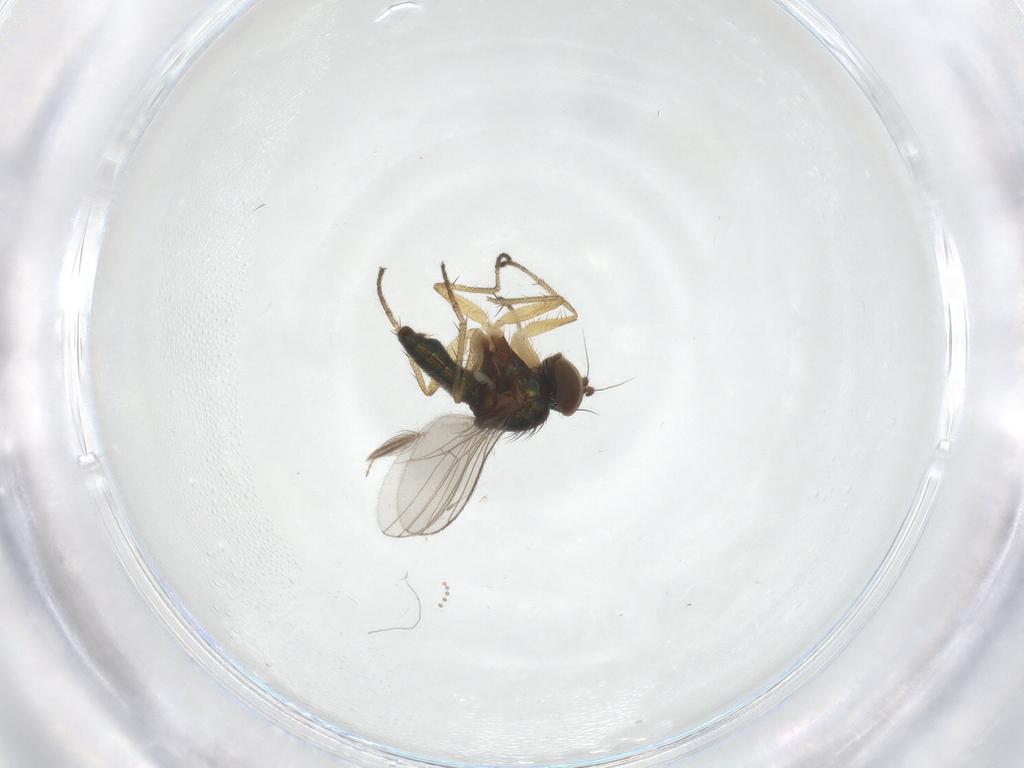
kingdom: Animalia
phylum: Arthropoda
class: Insecta
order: Diptera
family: Dolichopodidae
